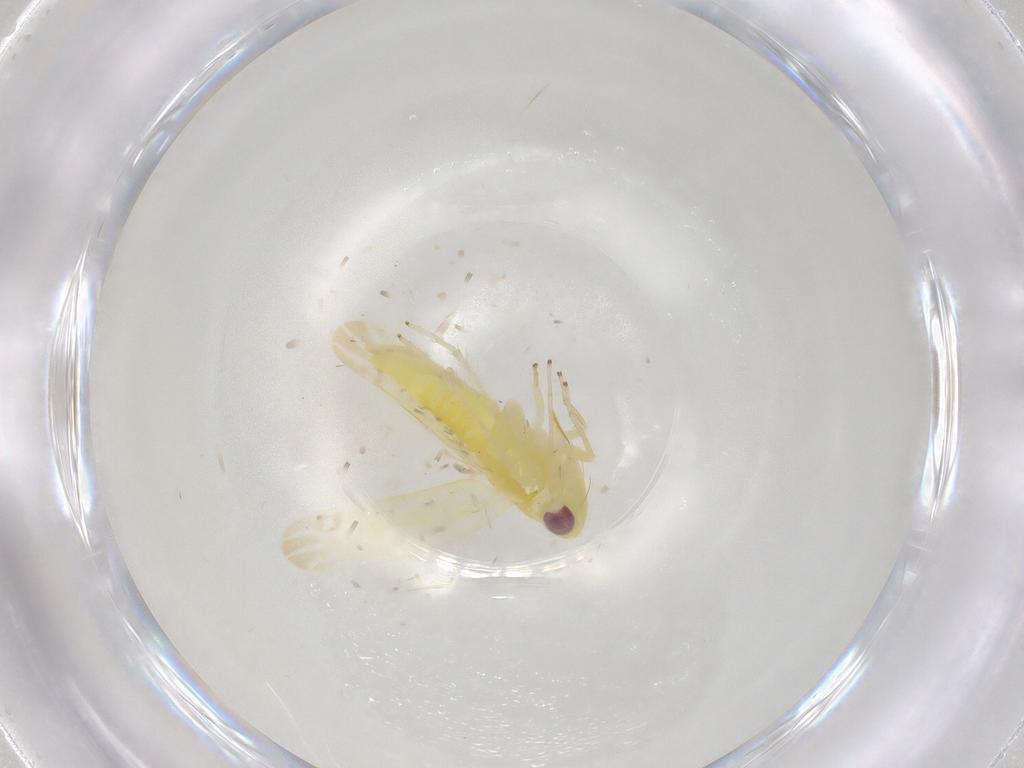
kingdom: Animalia
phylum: Arthropoda
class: Insecta
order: Hemiptera
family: Cicadellidae
